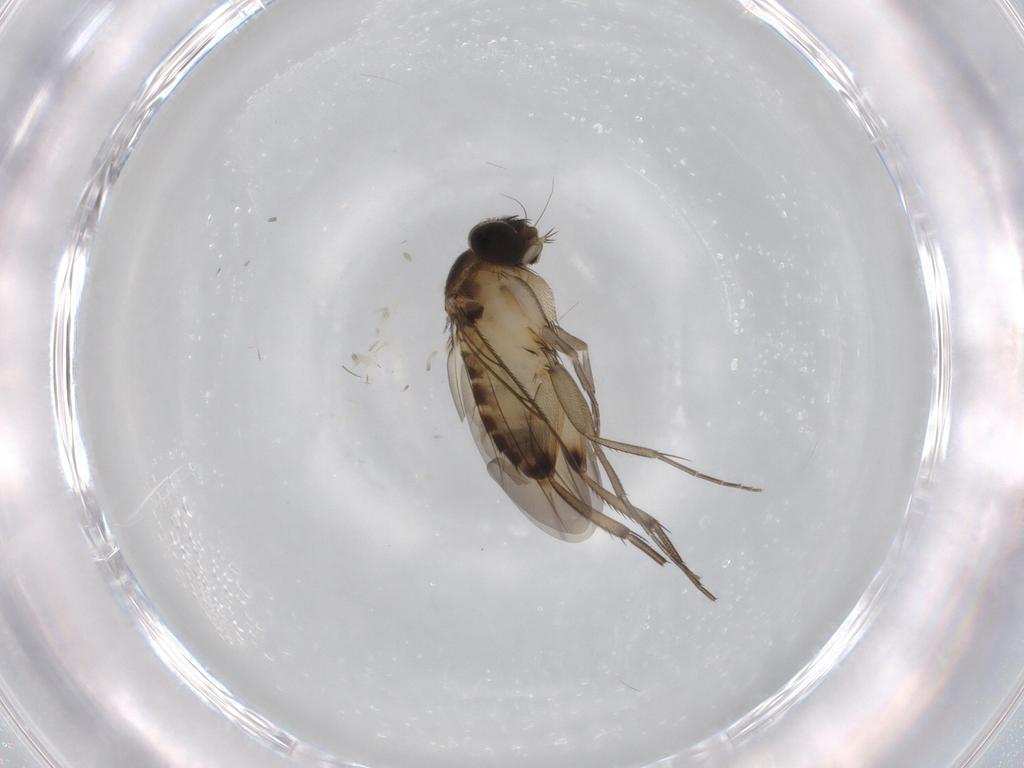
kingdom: Animalia
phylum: Arthropoda
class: Insecta
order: Diptera
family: Phoridae
